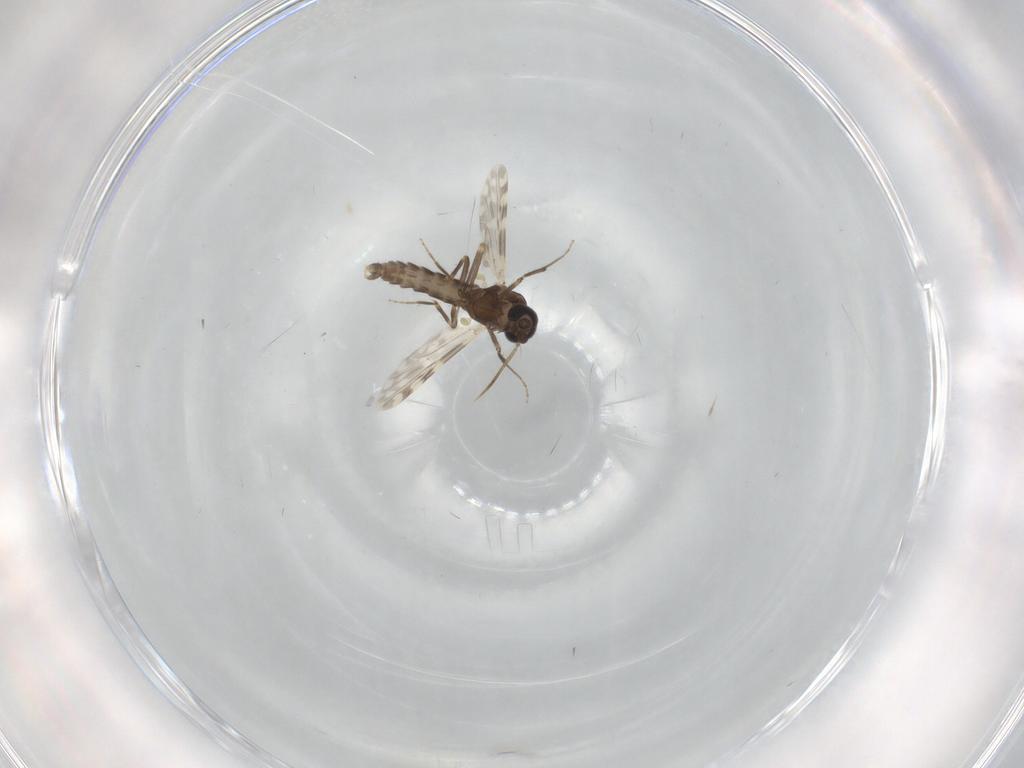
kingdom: Animalia
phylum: Arthropoda
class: Insecta
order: Diptera
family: Ceratopogonidae
